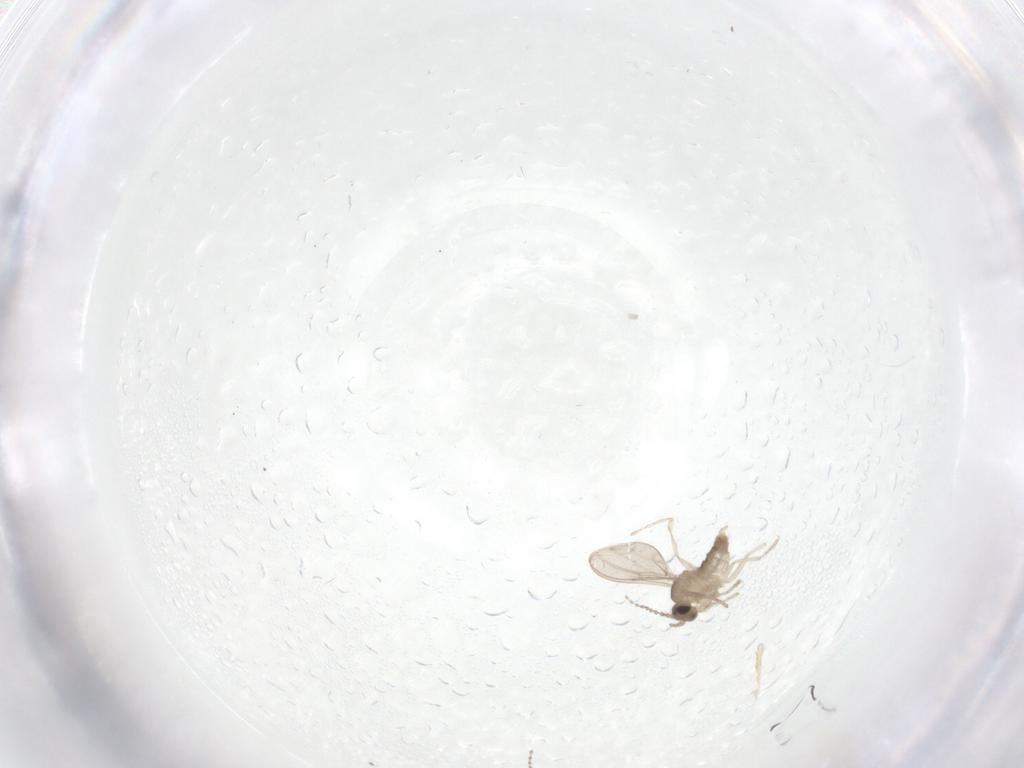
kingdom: Animalia
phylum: Arthropoda
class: Insecta
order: Diptera
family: Cecidomyiidae
